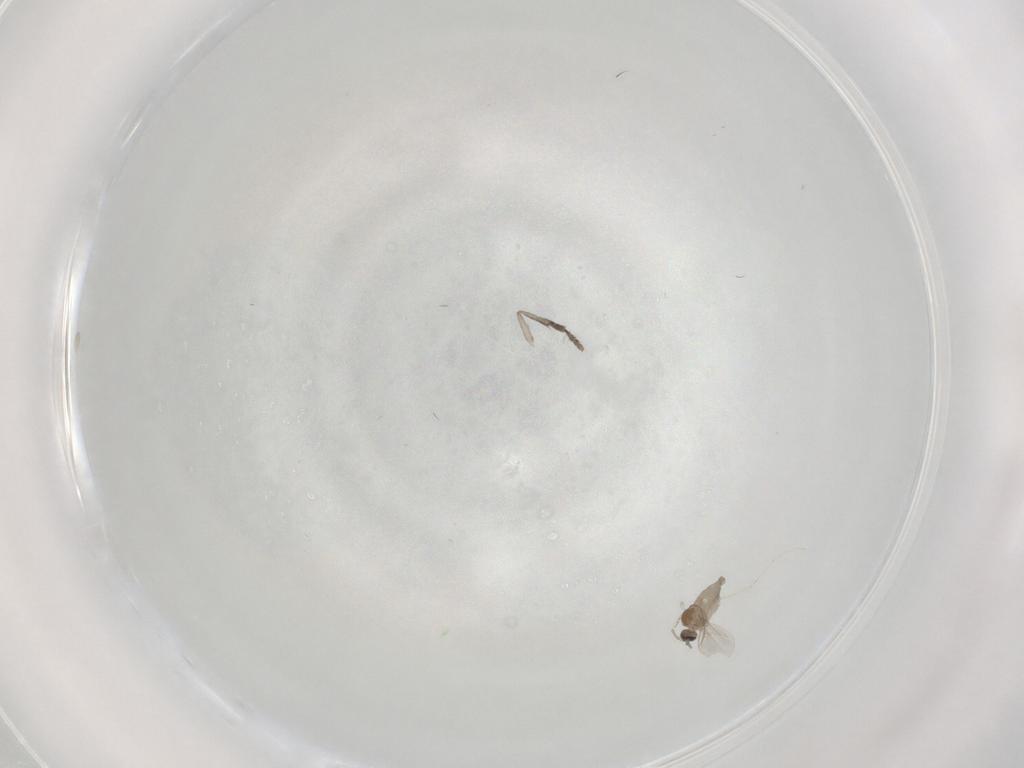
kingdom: Animalia
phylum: Arthropoda
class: Insecta
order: Diptera
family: Cecidomyiidae
